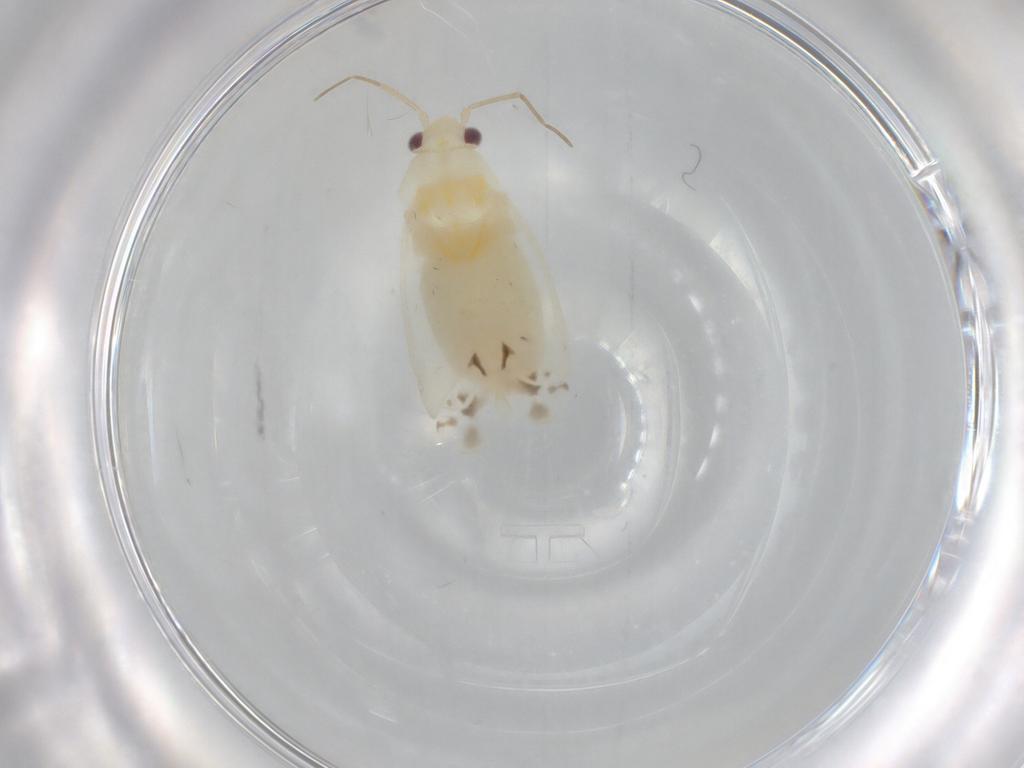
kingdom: Animalia
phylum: Arthropoda
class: Insecta
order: Hemiptera
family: Miridae
